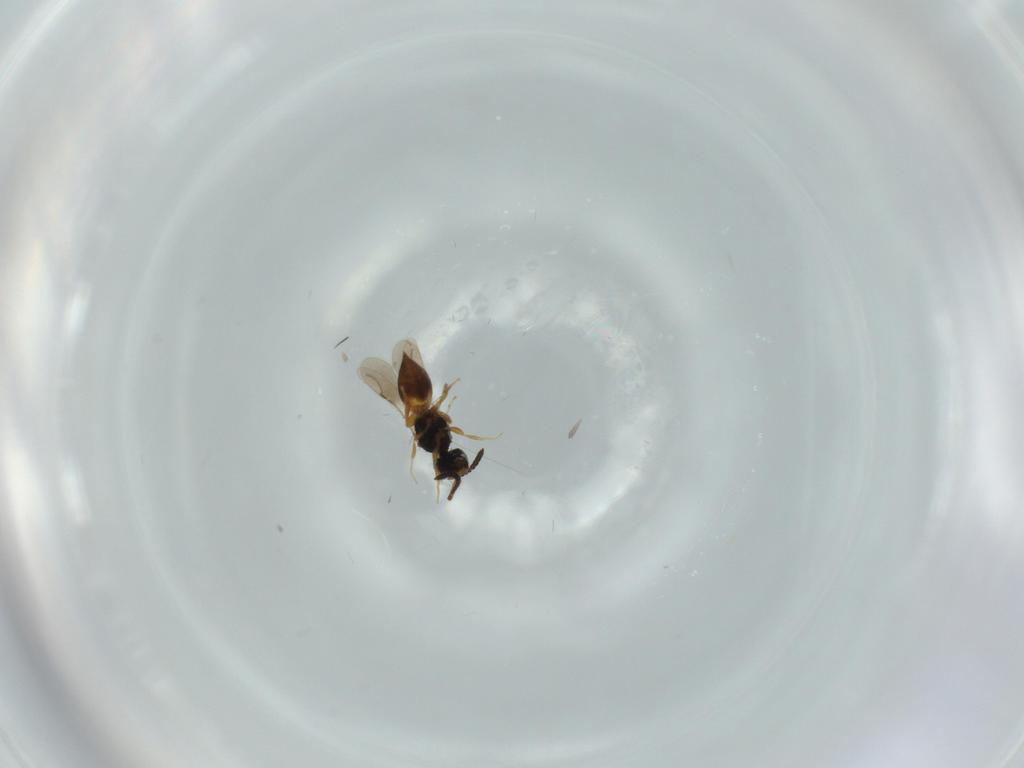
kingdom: Animalia
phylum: Arthropoda
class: Insecta
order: Hymenoptera
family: Formicidae
